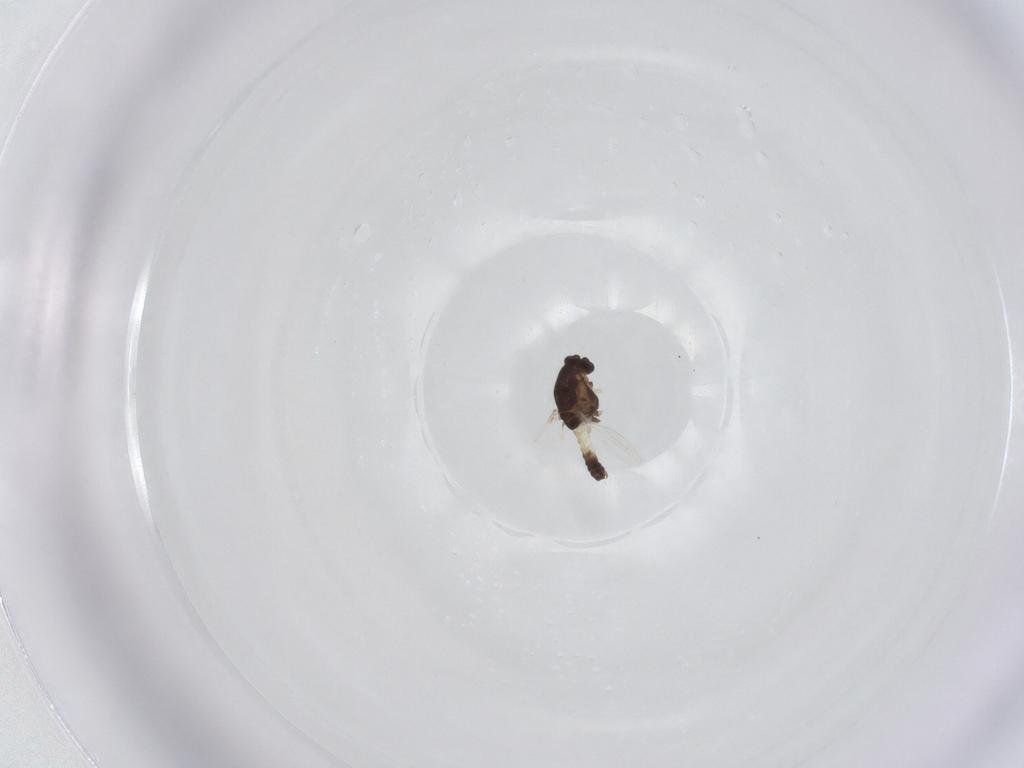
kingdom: Animalia
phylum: Arthropoda
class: Insecta
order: Diptera
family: Chironomidae
